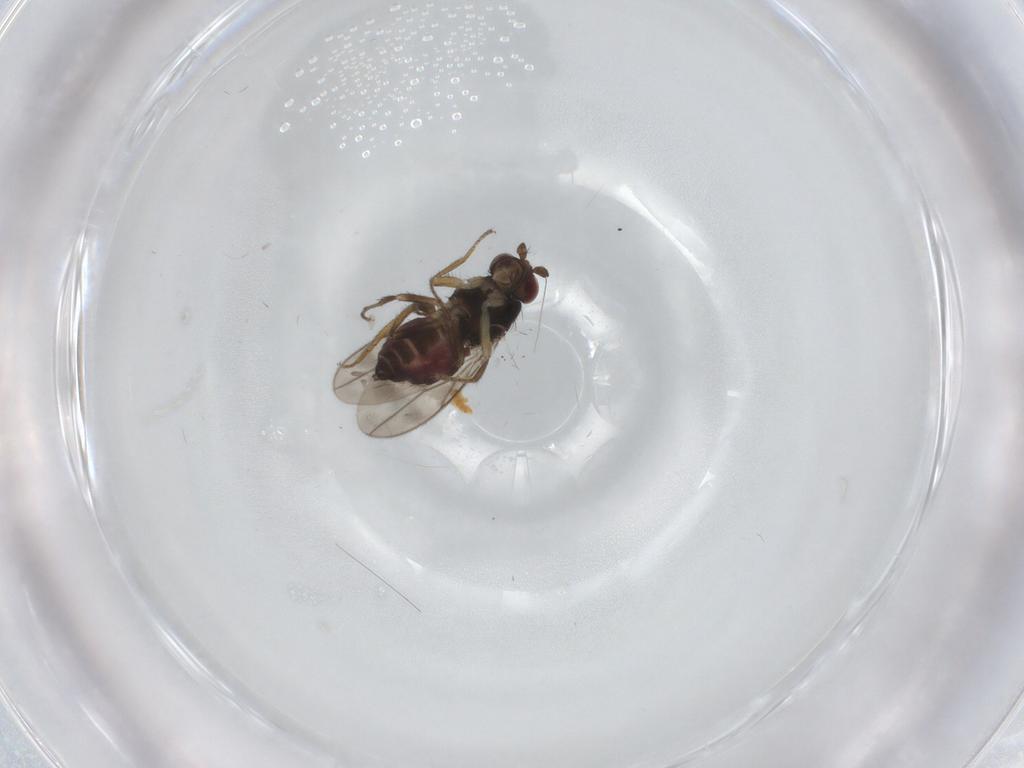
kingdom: Animalia
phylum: Arthropoda
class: Insecta
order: Diptera
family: Sphaeroceridae
